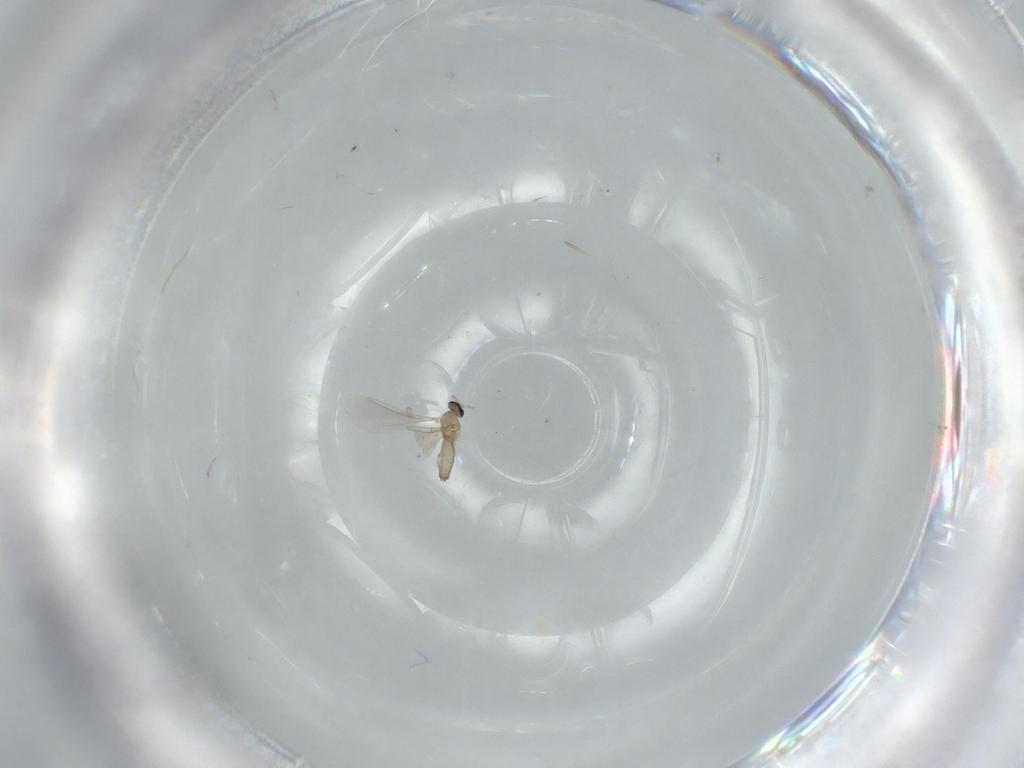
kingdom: Animalia
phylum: Arthropoda
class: Insecta
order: Diptera
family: Cecidomyiidae
